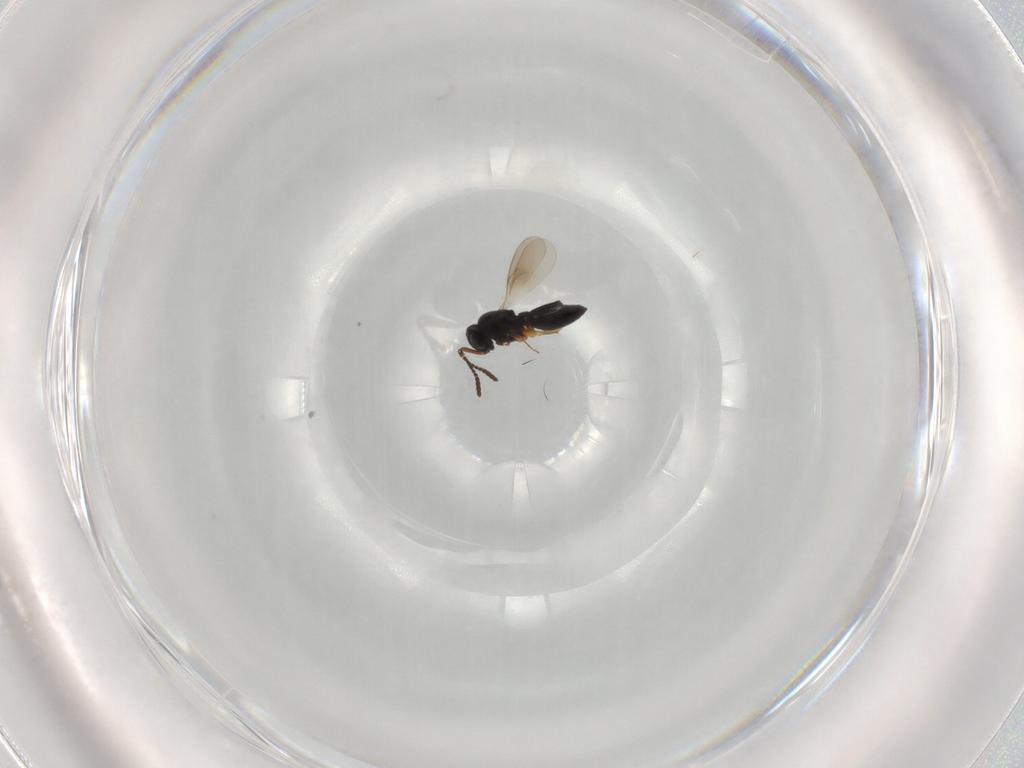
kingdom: Animalia
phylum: Arthropoda
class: Insecta
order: Hymenoptera
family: Scelionidae
